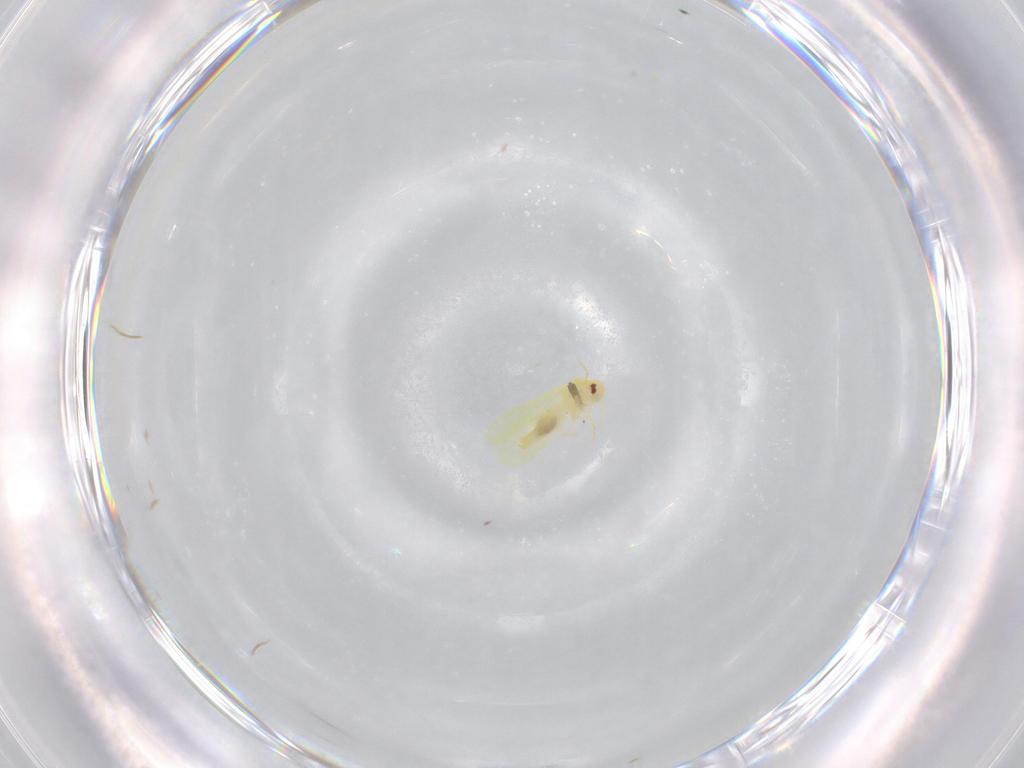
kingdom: Animalia
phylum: Arthropoda
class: Insecta
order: Hemiptera
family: Aleyrodidae
